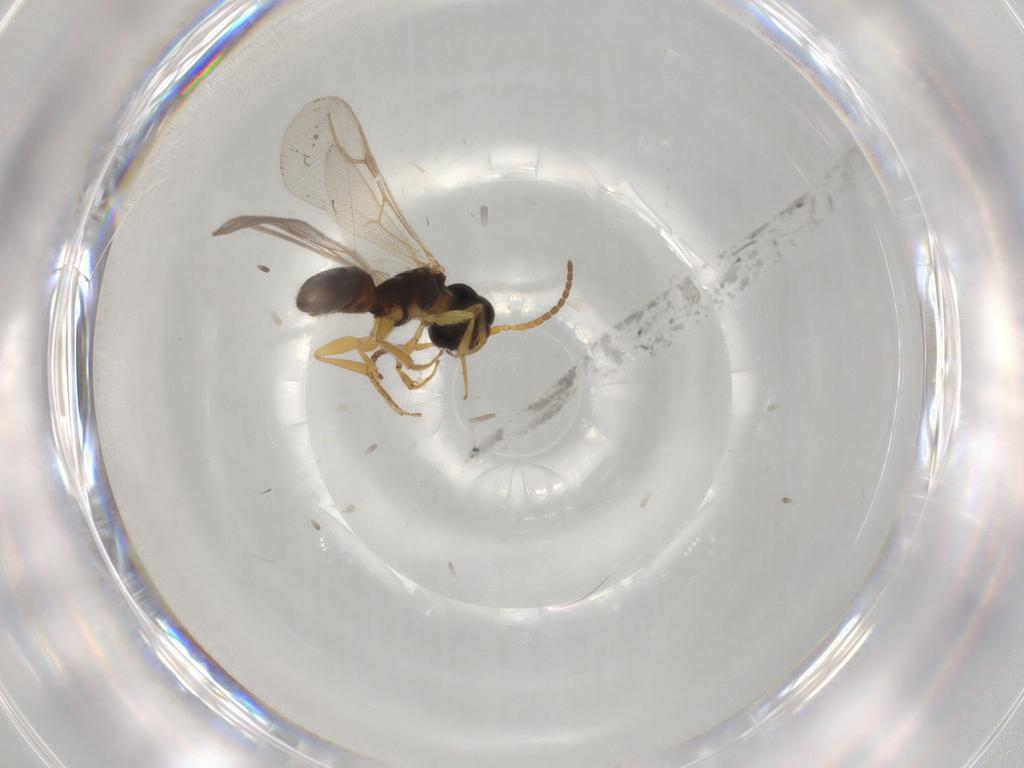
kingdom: Animalia
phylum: Arthropoda
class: Insecta
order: Hymenoptera
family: Bethylidae
